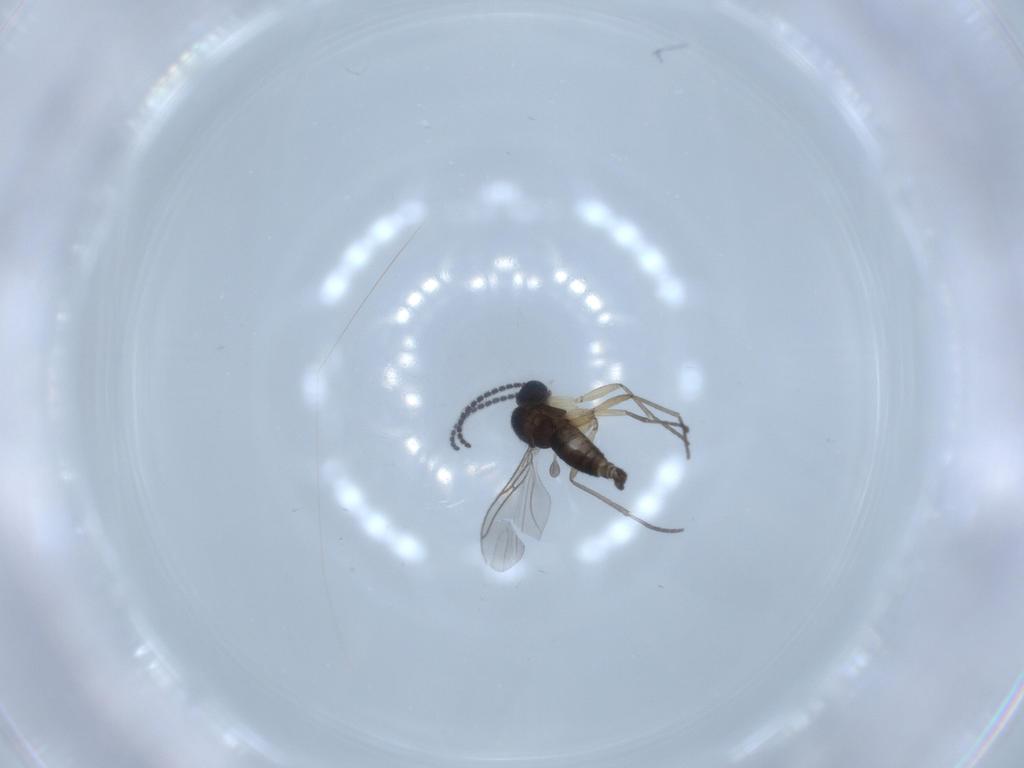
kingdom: Animalia
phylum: Arthropoda
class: Insecta
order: Diptera
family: Sciaridae
